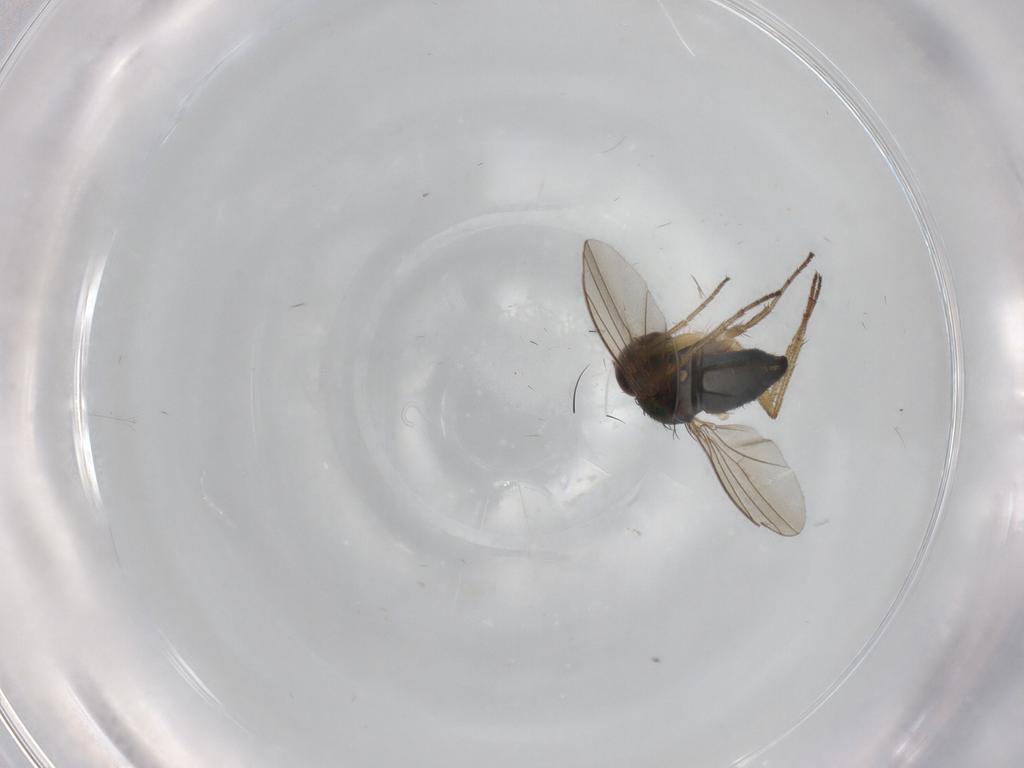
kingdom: Animalia
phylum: Arthropoda
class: Insecta
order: Diptera
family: Dolichopodidae
